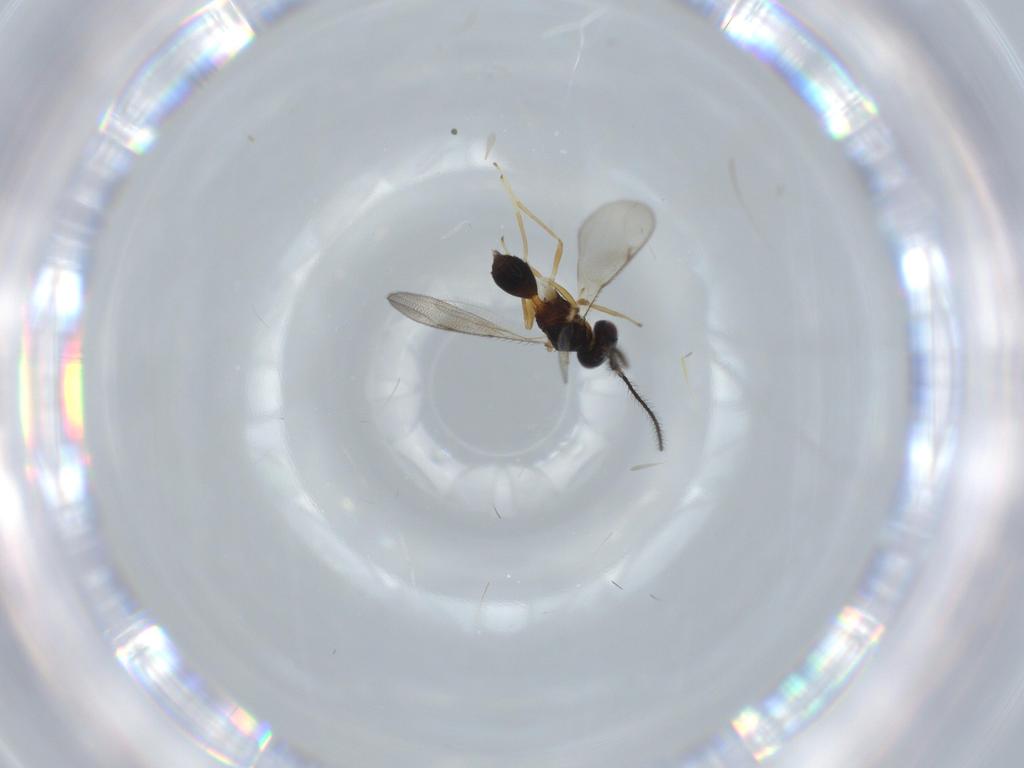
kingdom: Animalia
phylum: Arthropoda
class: Insecta
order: Hymenoptera
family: Diparidae
